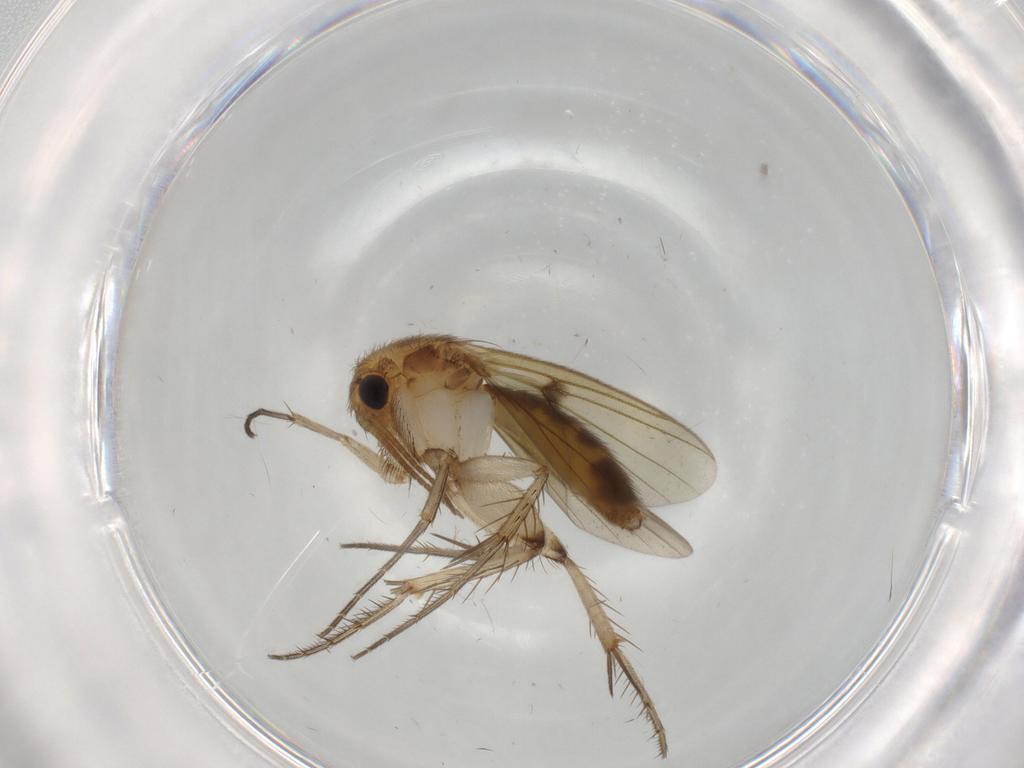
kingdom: Animalia
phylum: Arthropoda
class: Insecta
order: Diptera
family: Mycetophilidae
